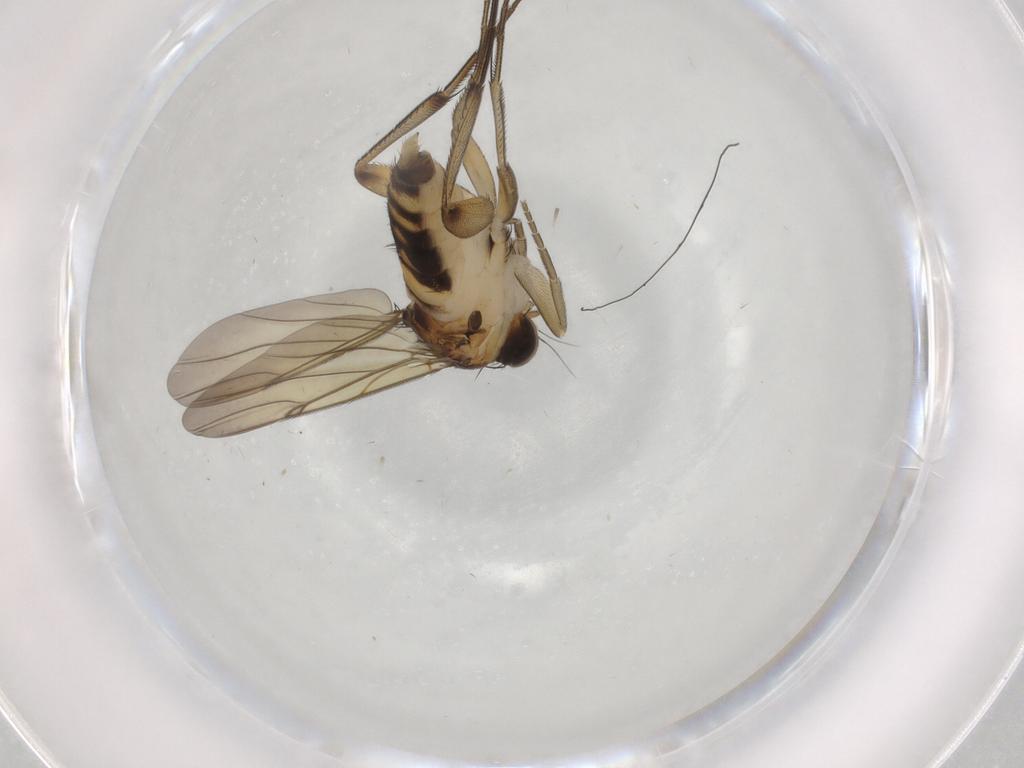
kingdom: Animalia
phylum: Arthropoda
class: Insecta
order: Diptera
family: Phoridae
